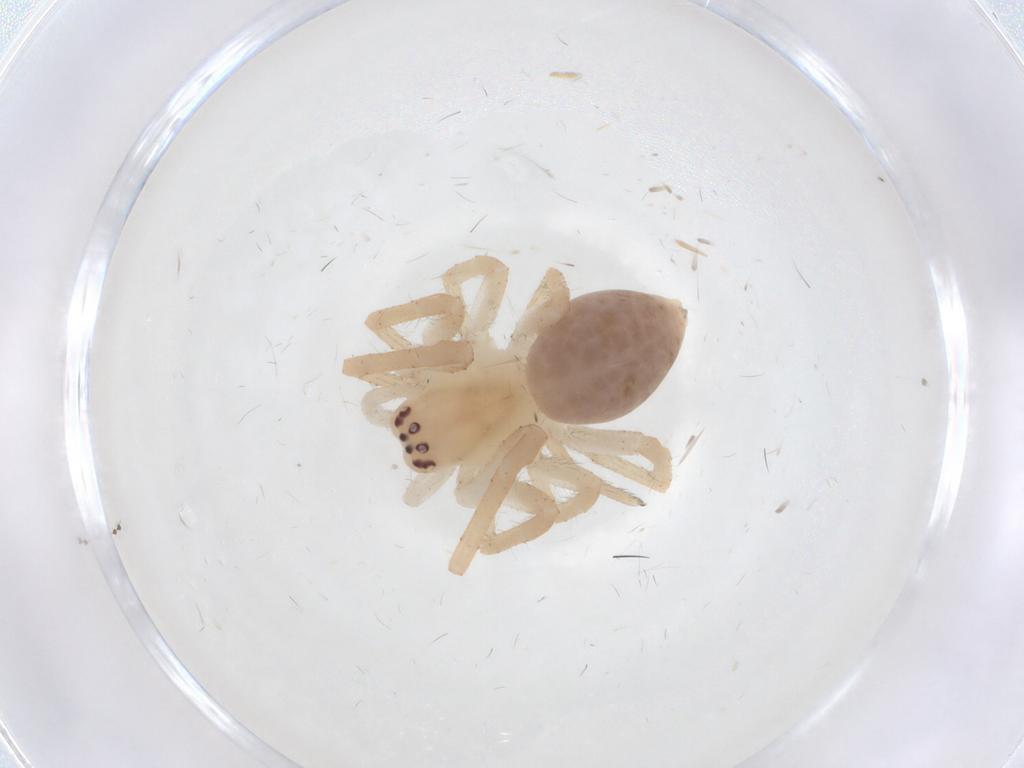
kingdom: Animalia
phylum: Arthropoda
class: Arachnida
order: Araneae
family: Dictynidae
